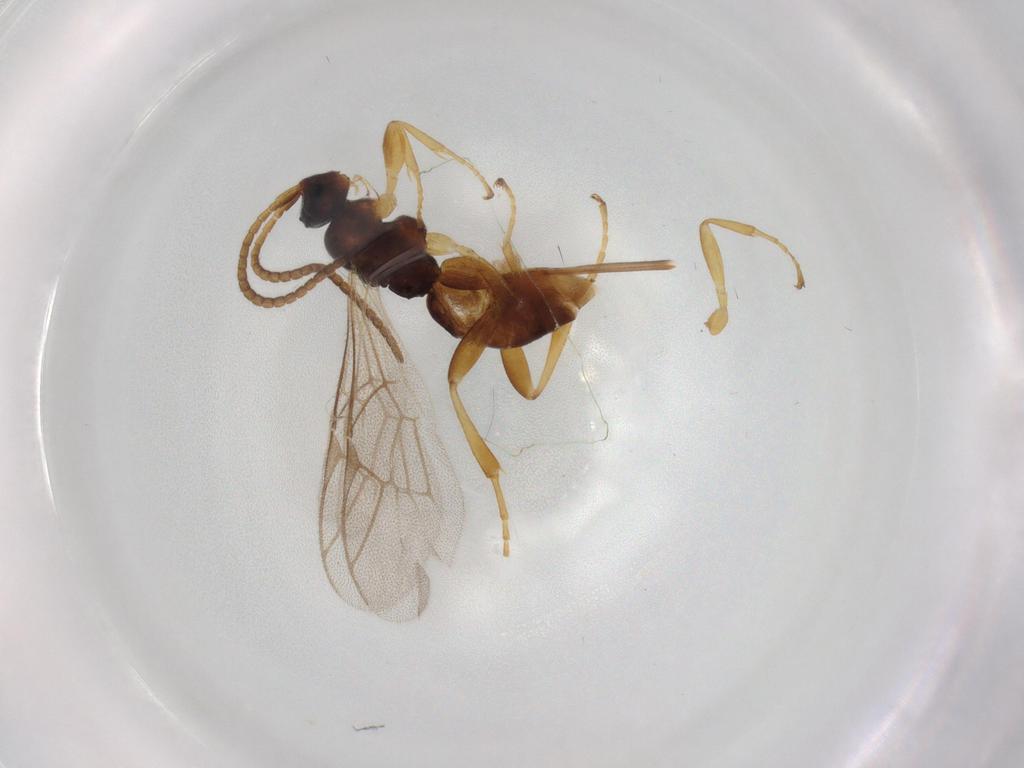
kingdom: Animalia
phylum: Arthropoda
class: Insecta
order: Hymenoptera
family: Ichneumonidae
